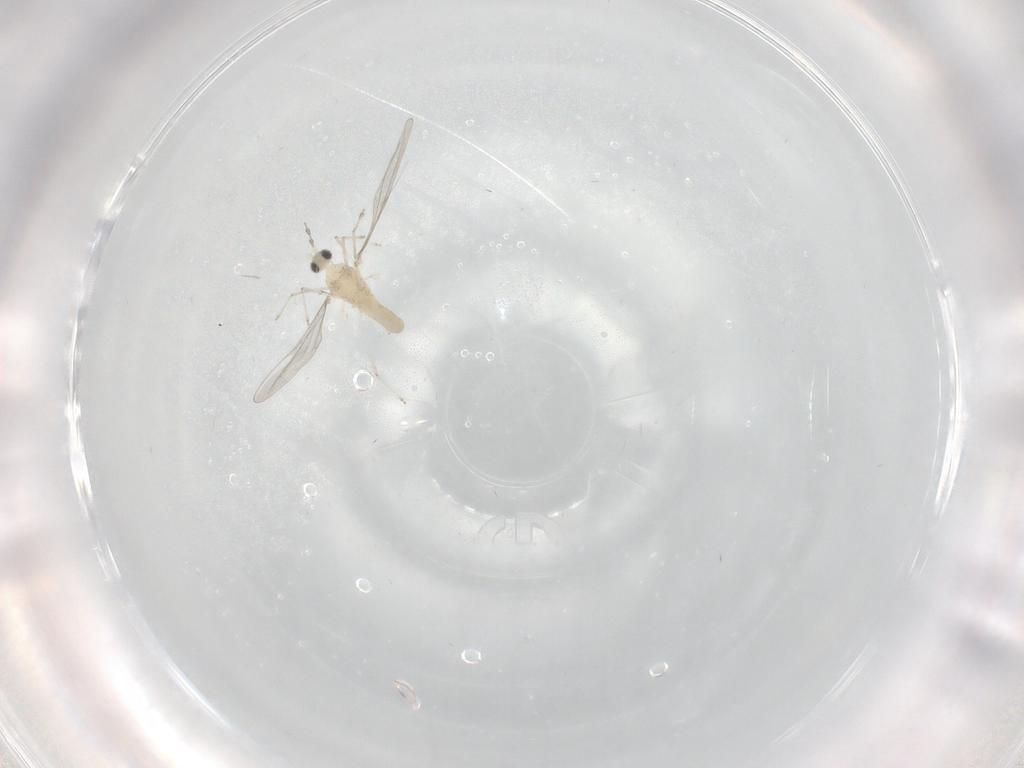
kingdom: Animalia
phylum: Arthropoda
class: Insecta
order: Diptera
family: Cecidomyiidae
